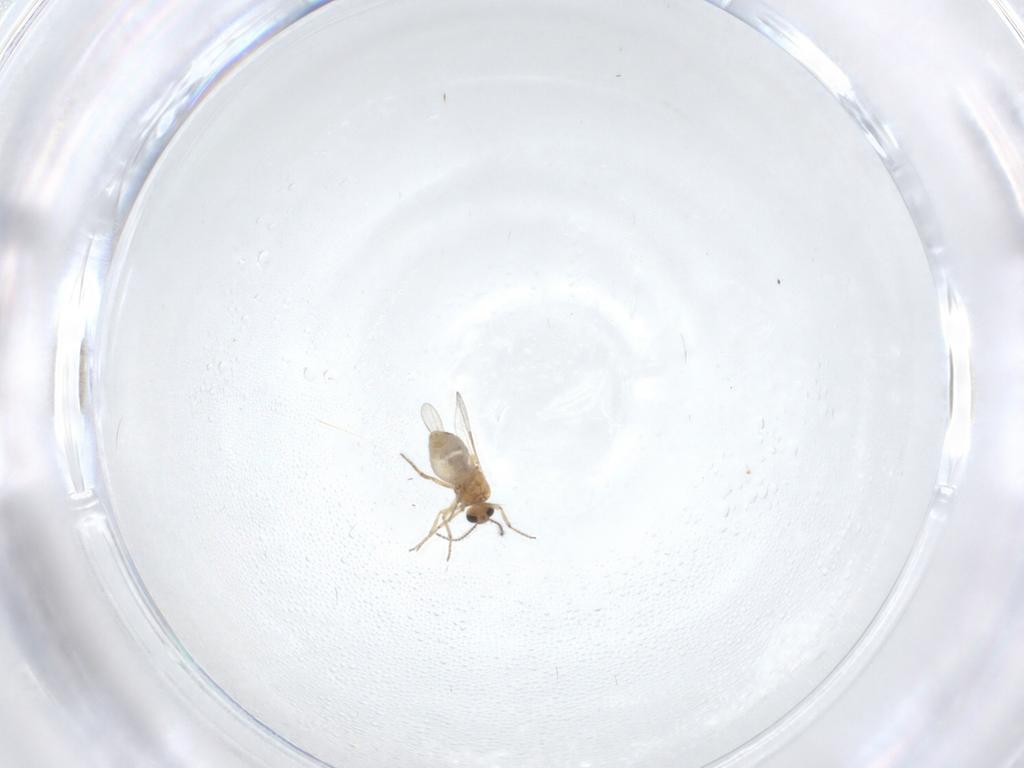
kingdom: Animalia
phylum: Arthropoda
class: Insecta
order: Diptera
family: Ceratopogonidae
